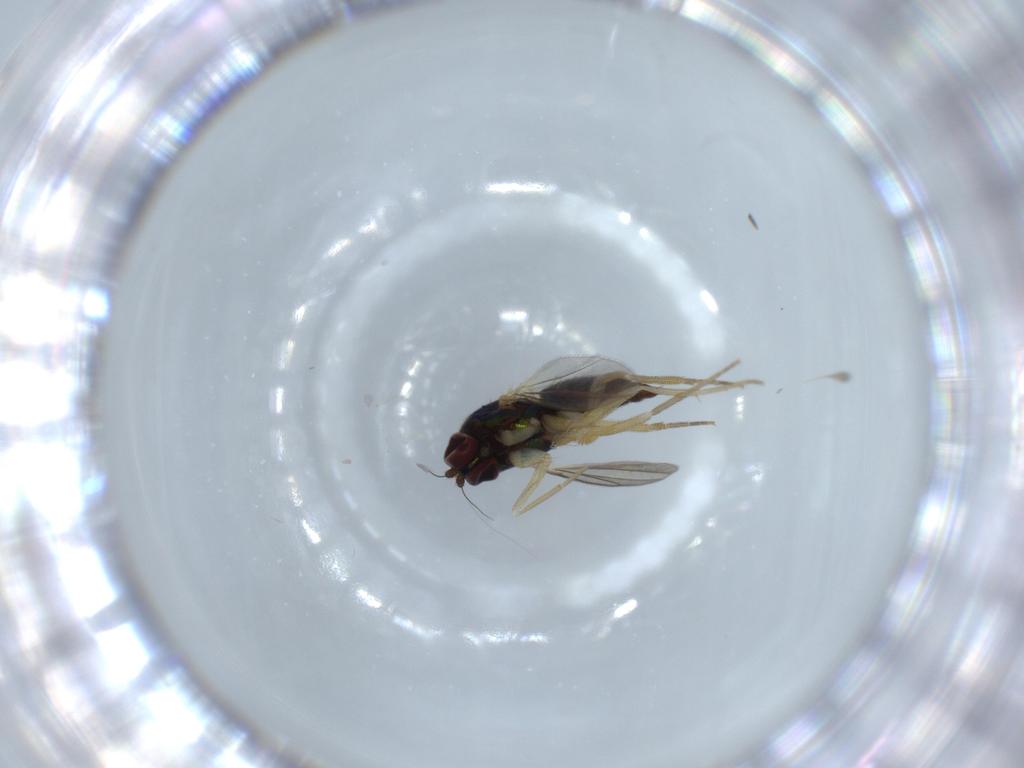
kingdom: Animalia
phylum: Arthropoda
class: Insecta
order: Diptera
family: Dolichopodidae
